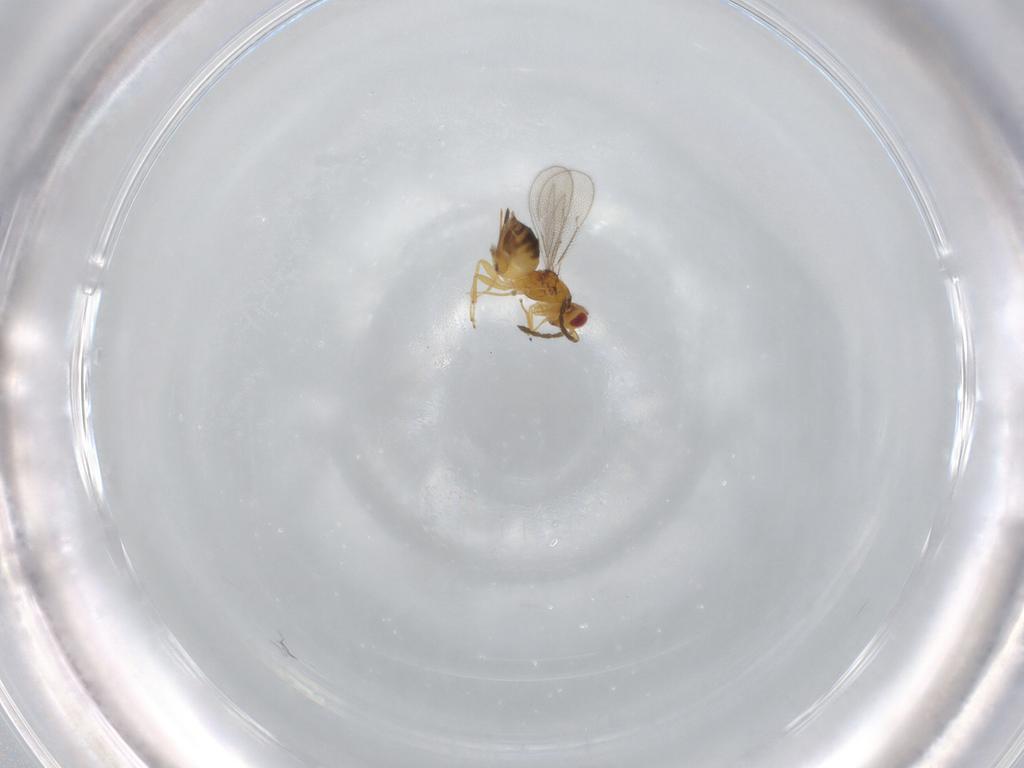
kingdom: Animalia
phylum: Arthropoda
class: Insecta
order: Hymenoptera
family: Eulophidae
